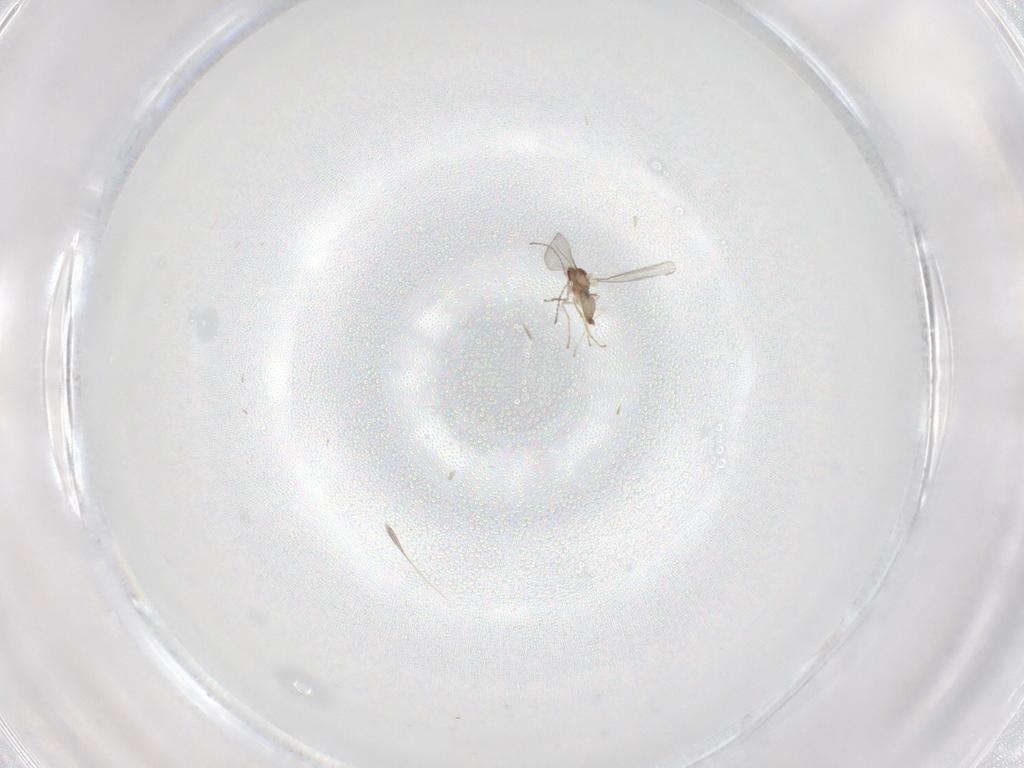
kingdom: Animalia
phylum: Arthropoda
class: Insecta
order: Diptera
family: Cecidomyiidae
